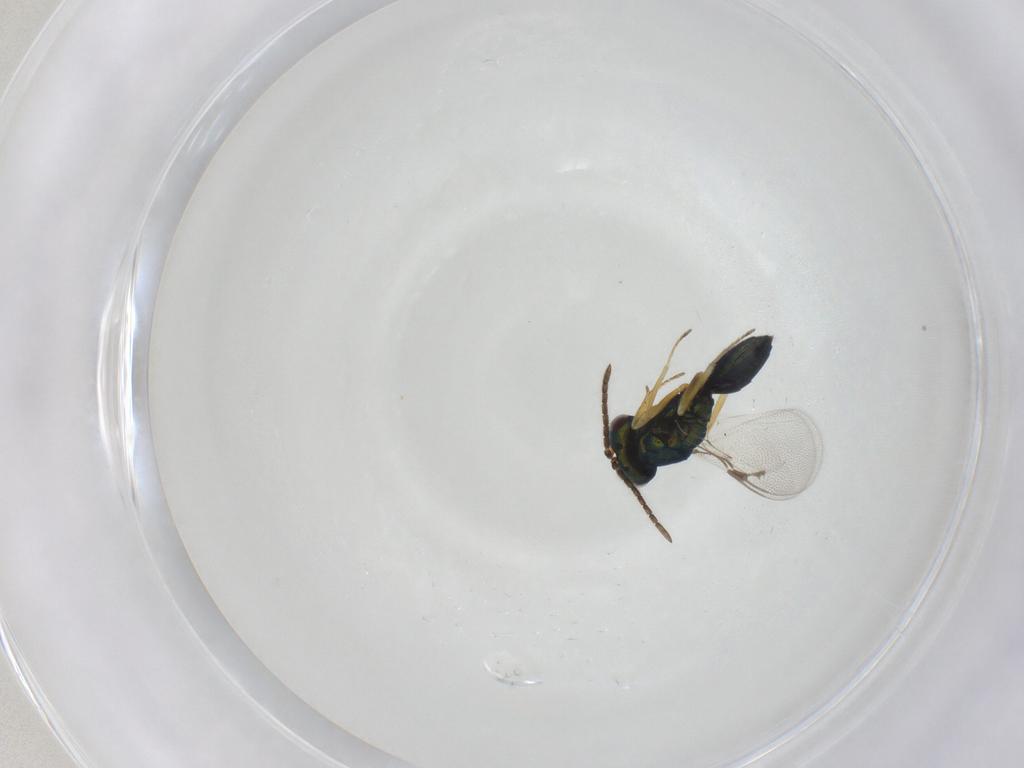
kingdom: Animalia
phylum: Arthropoda
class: Insecta
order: Hymenoptera
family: Pteromalidae
